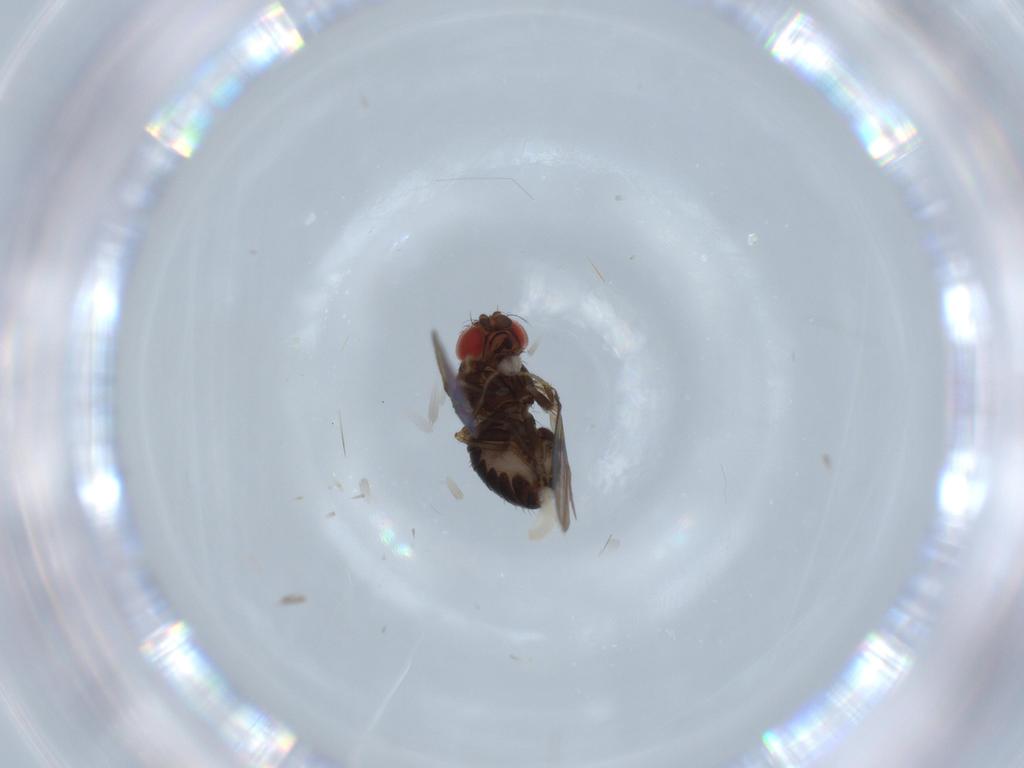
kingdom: Animalia
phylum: Arthropoda
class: Insecta
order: Diptera
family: Drosophilidae
